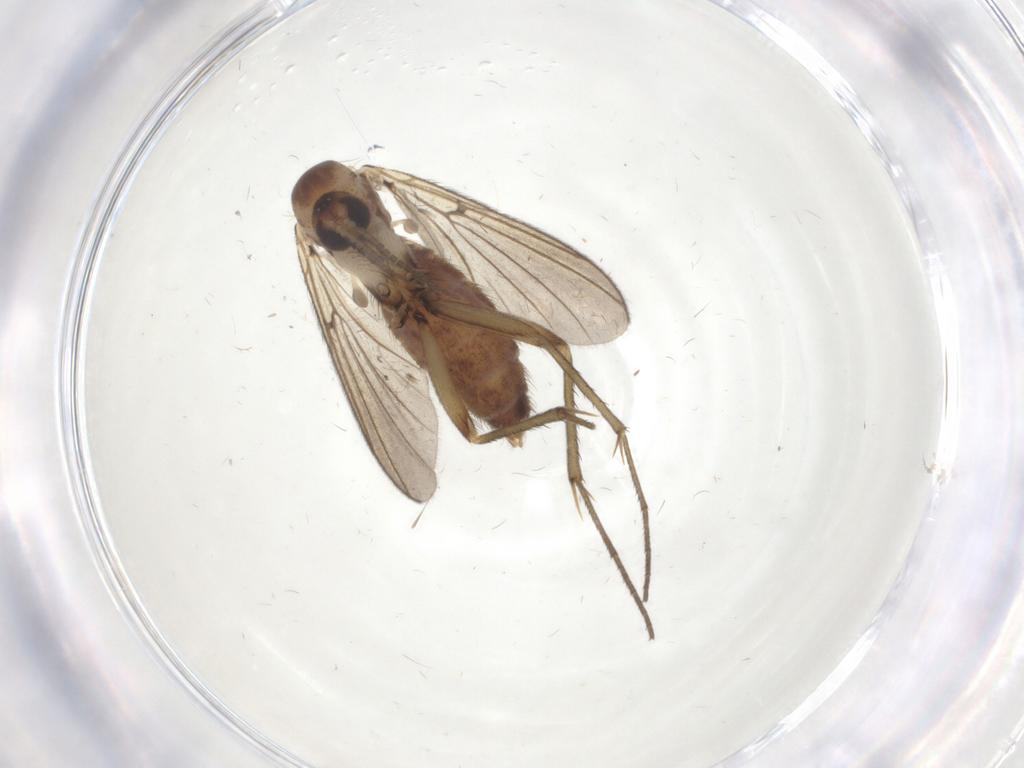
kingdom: Animalia
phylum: Arthropoda
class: Insecta
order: Diptera
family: Mycetophilidae
